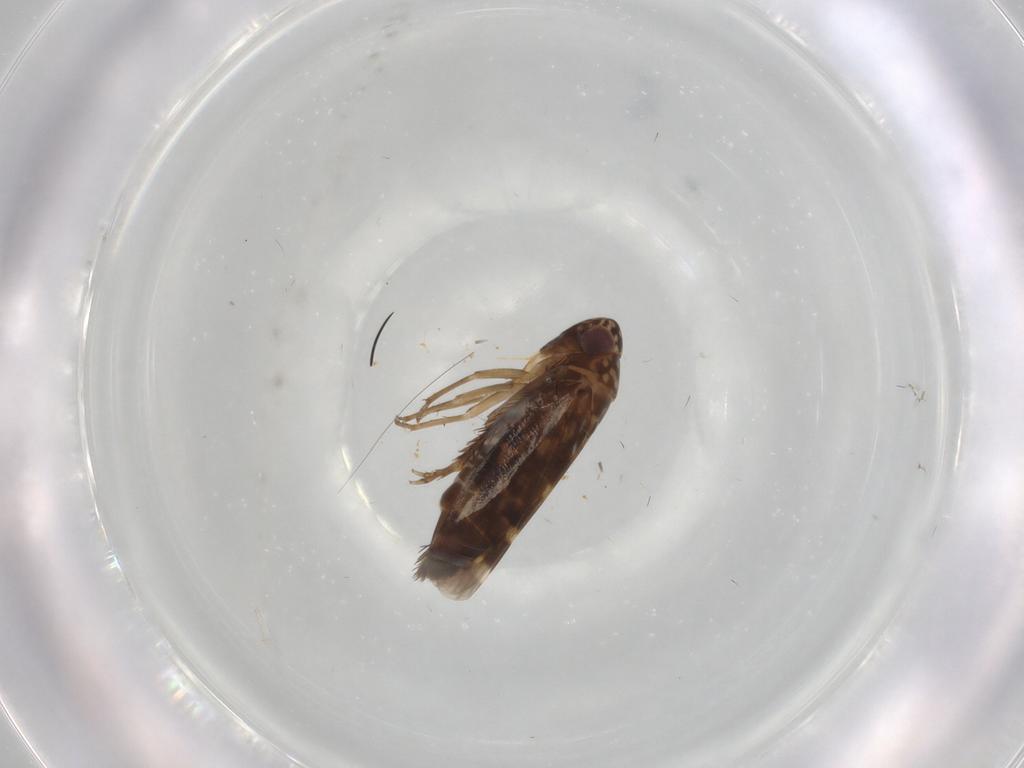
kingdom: Animalia
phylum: Arthropoda
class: Insecta
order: Hemiptera
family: Cicadellidae
